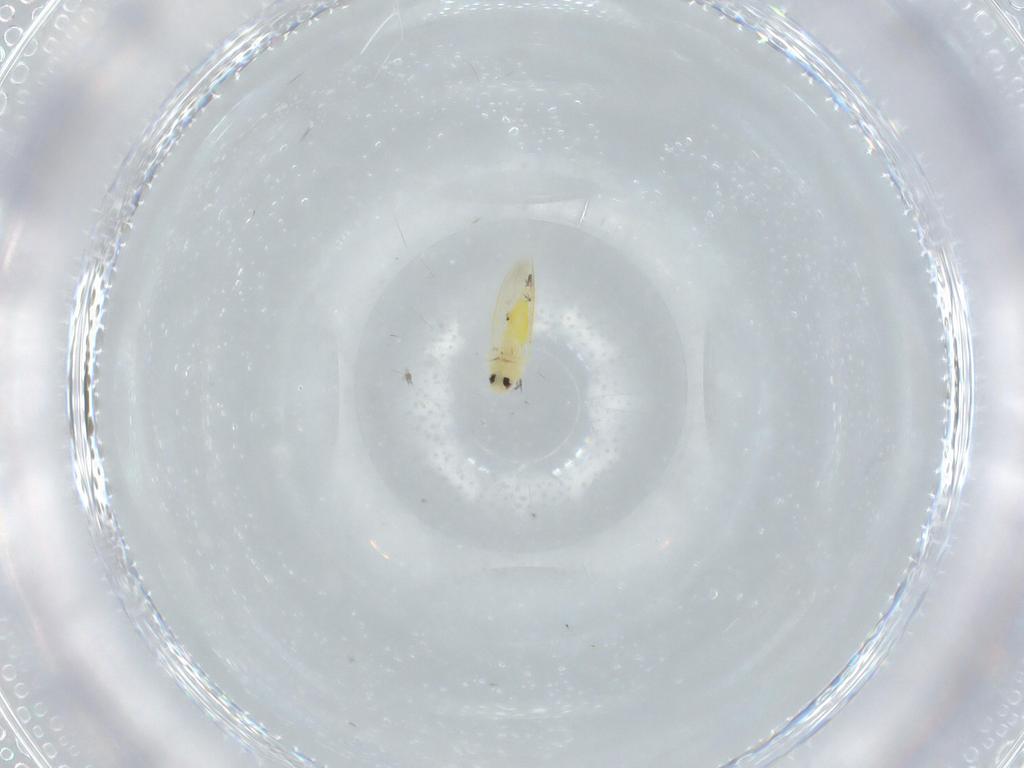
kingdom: Animalia
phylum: Arthropoda
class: Insecta
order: Hemiptera
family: Aleyrodidae
